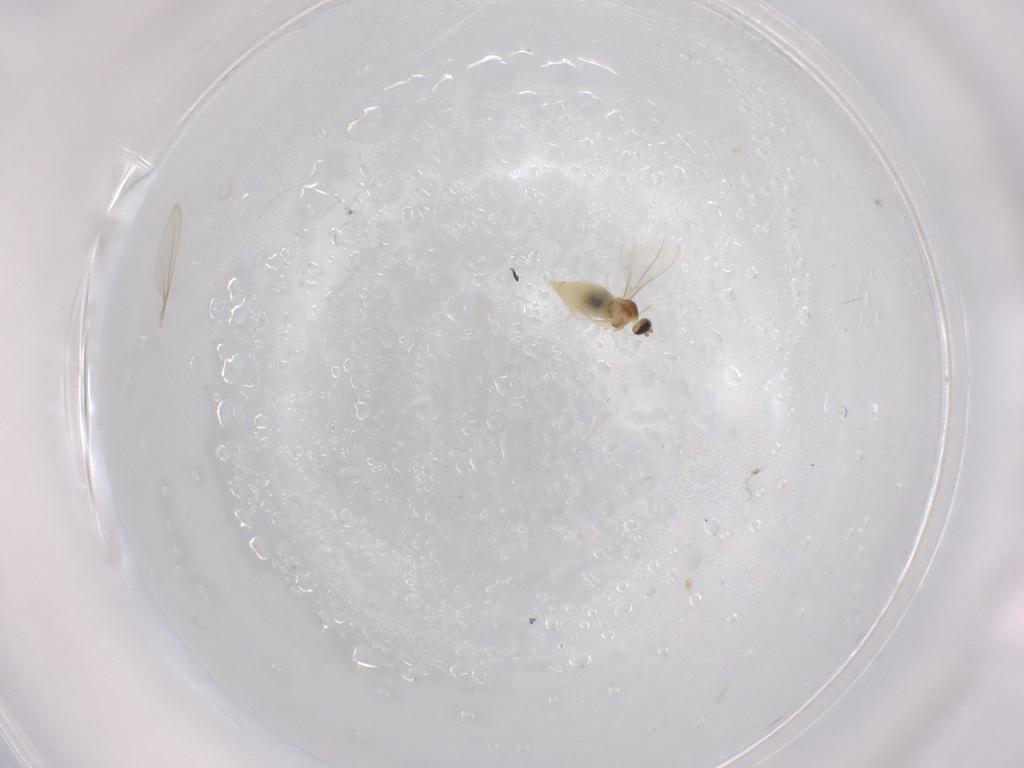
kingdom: Animalia
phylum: Arthropoda
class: Insecta
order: Diptera
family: Cecidomyiidae
